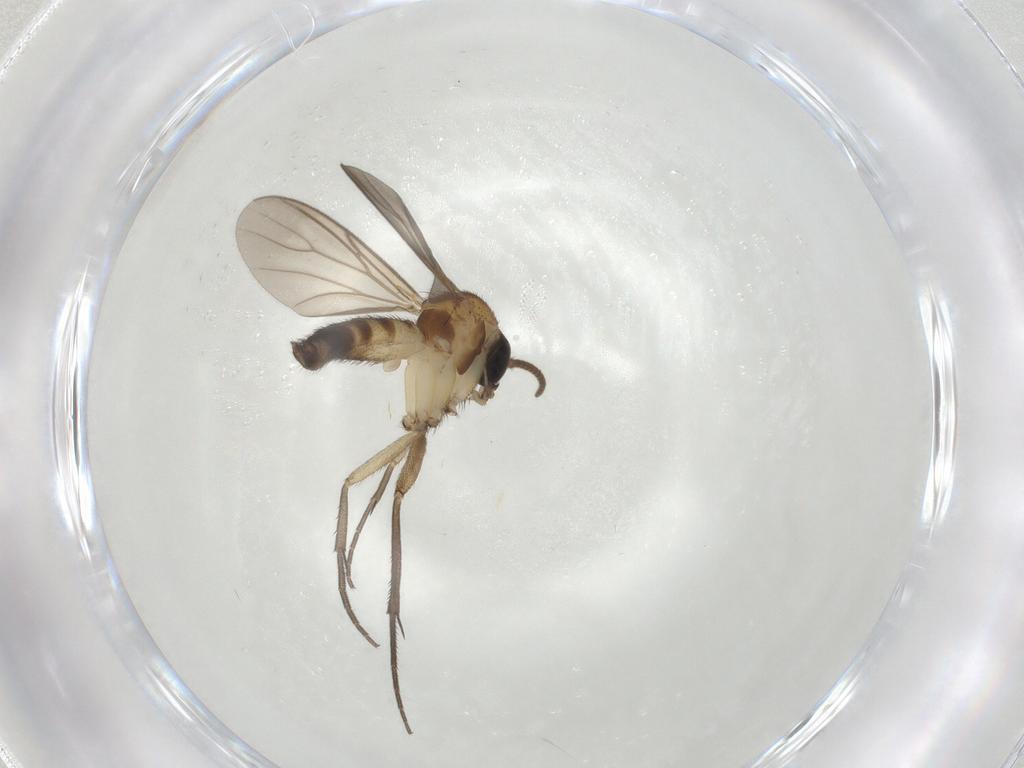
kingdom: Animalia
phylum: Arthropoda
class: Insecta
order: Diptera
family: Mycetophilidae
